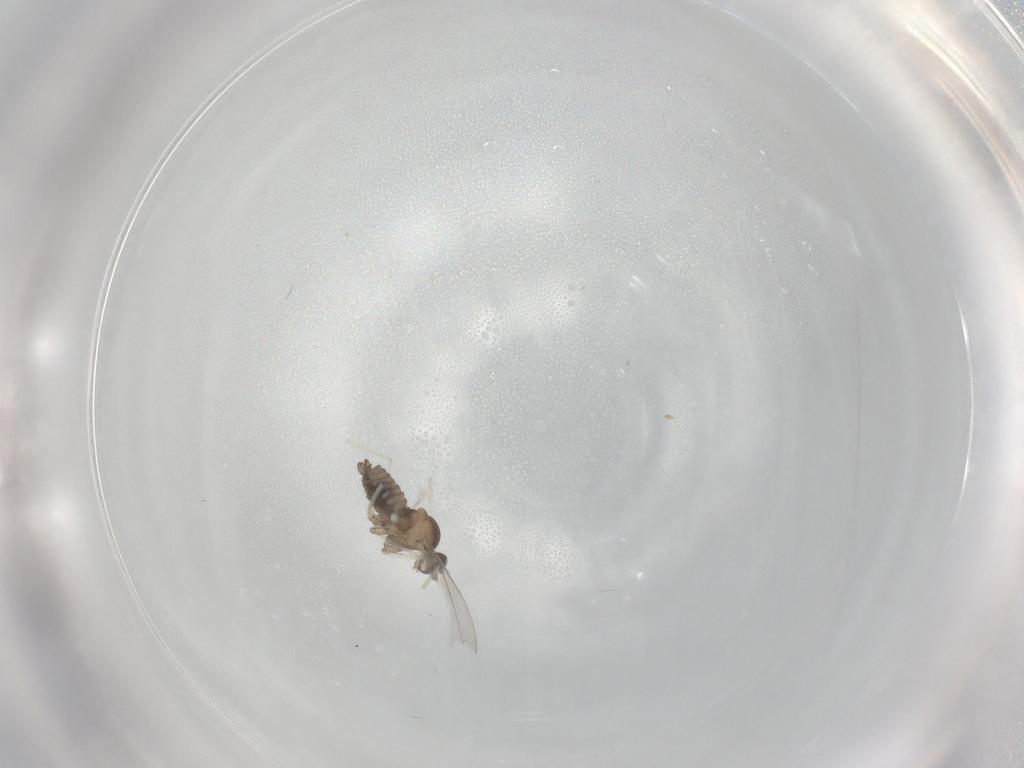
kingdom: Animalia
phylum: Arthropoda
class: Insecta
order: Diptera
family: Cecidomyiidae
